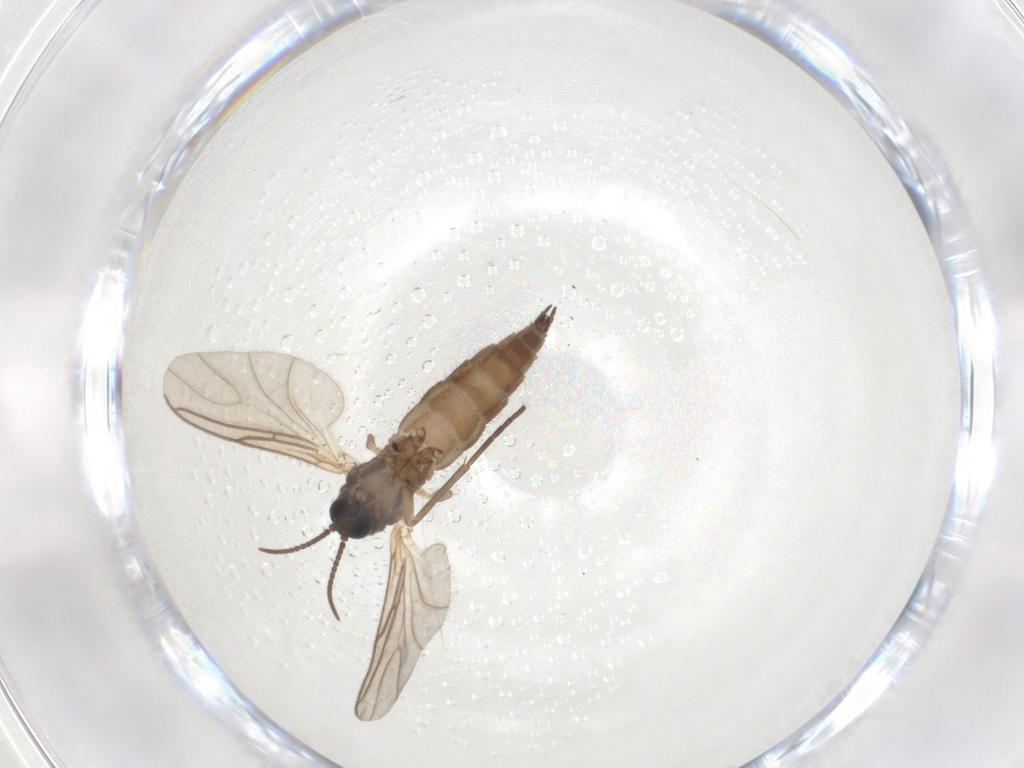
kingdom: Animalia
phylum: Arthropoda
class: Insecta
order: Diptera
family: Sciaridae
